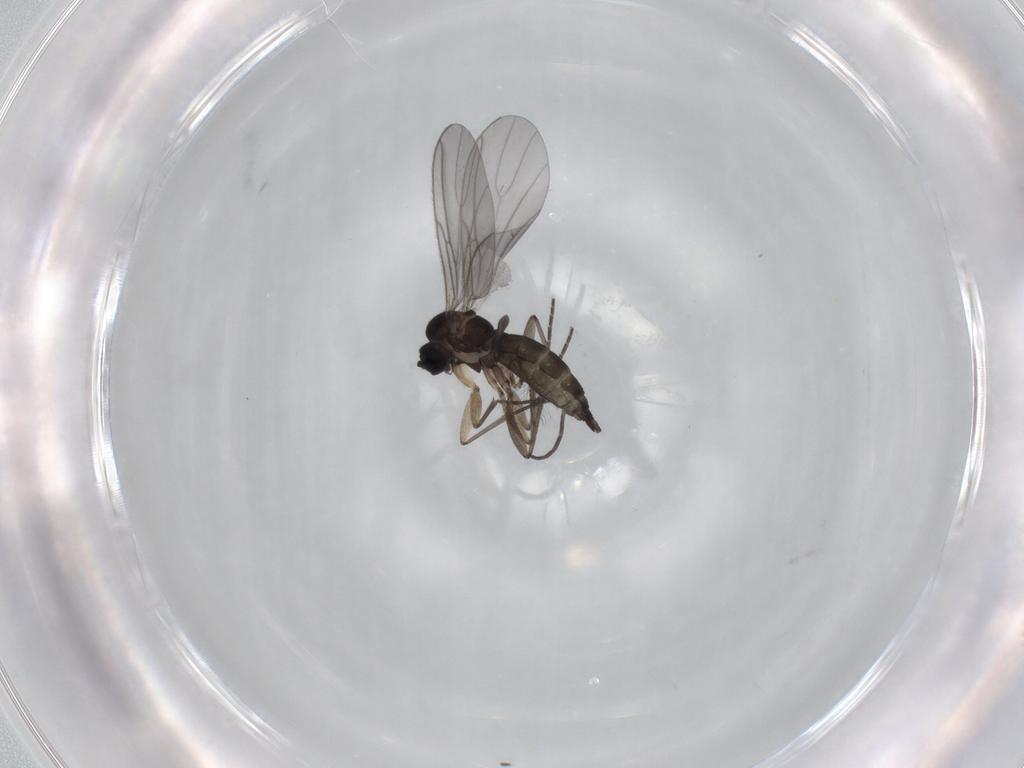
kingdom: Animalia
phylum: Arthropoda
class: Insecta
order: Diptera
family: Sciaridae
